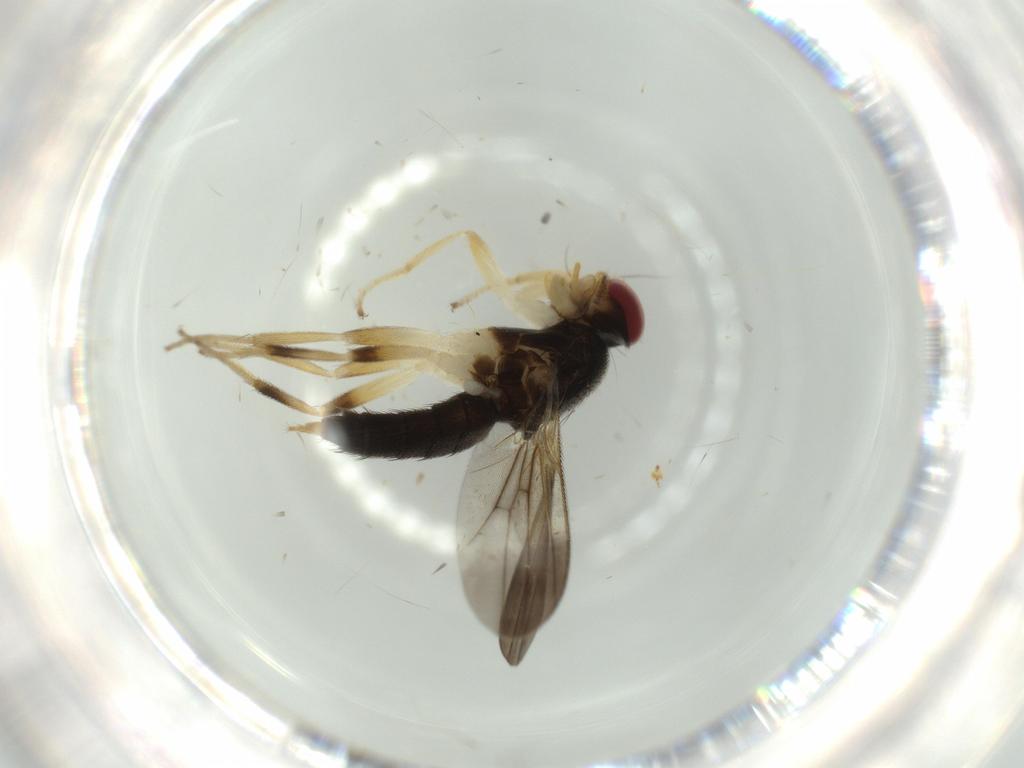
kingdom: Animalia
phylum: Arthropoda
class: Insecta
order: Diptera
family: Clusiidae
